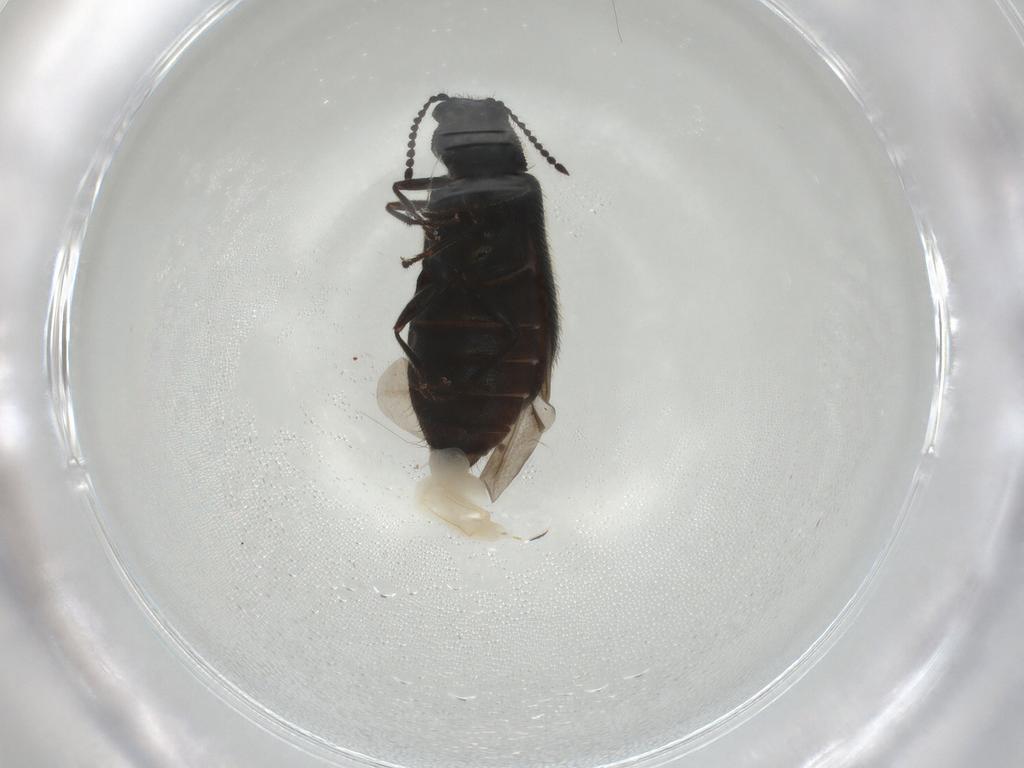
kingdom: Animalia
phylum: Arthropoda
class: Insecta
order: Coleoptera
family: Melyridae
